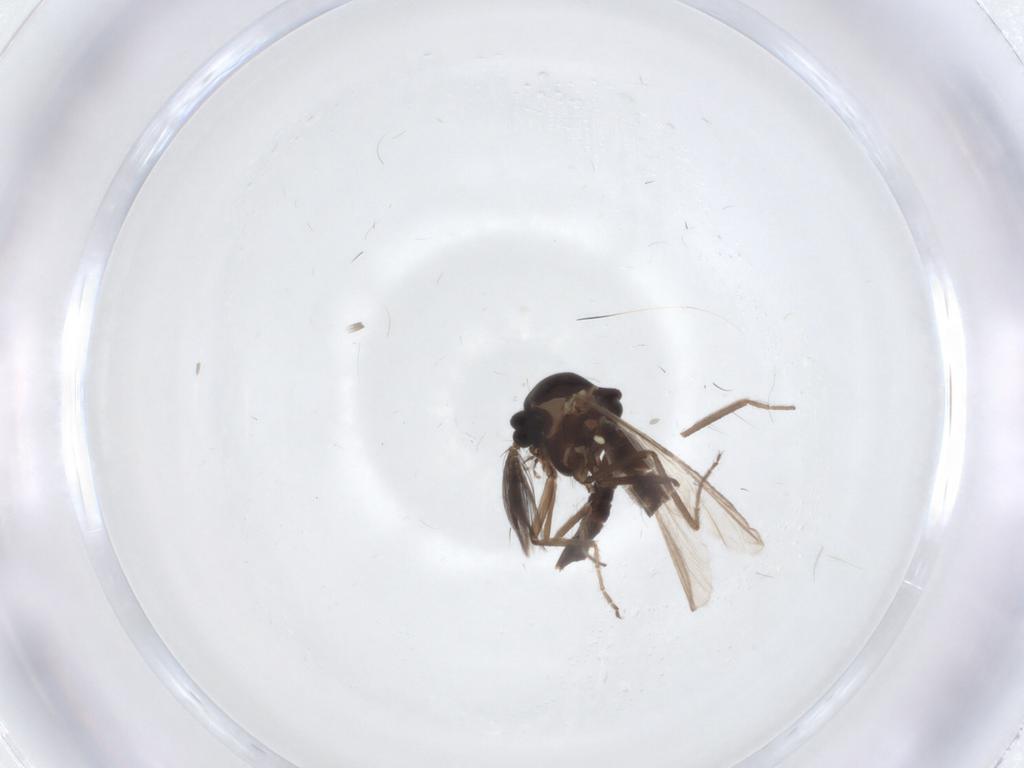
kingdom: Animalia
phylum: Arthropoda
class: Insecta
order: Diptera
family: Ceratopogonidae
